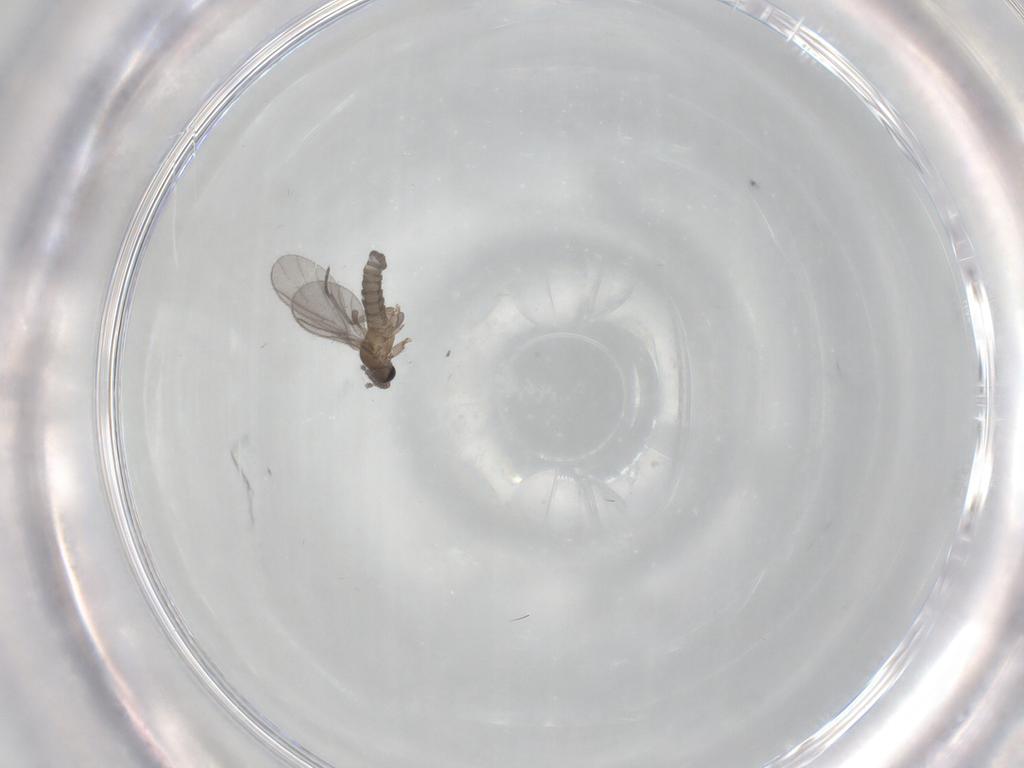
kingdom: Animalia
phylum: Arthropoda
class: Insecta
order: Diptera
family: Sciaridae
